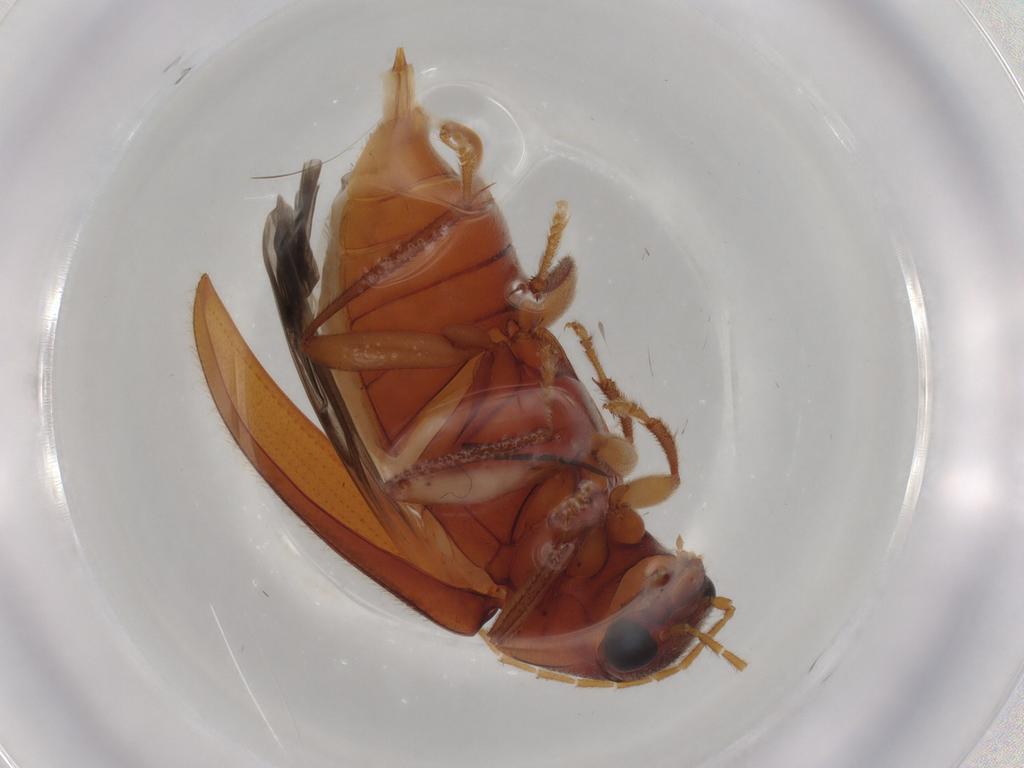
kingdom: Animalia
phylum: Arthropoda
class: Insecta
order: Coleoptera
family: Ptilodactylidae
